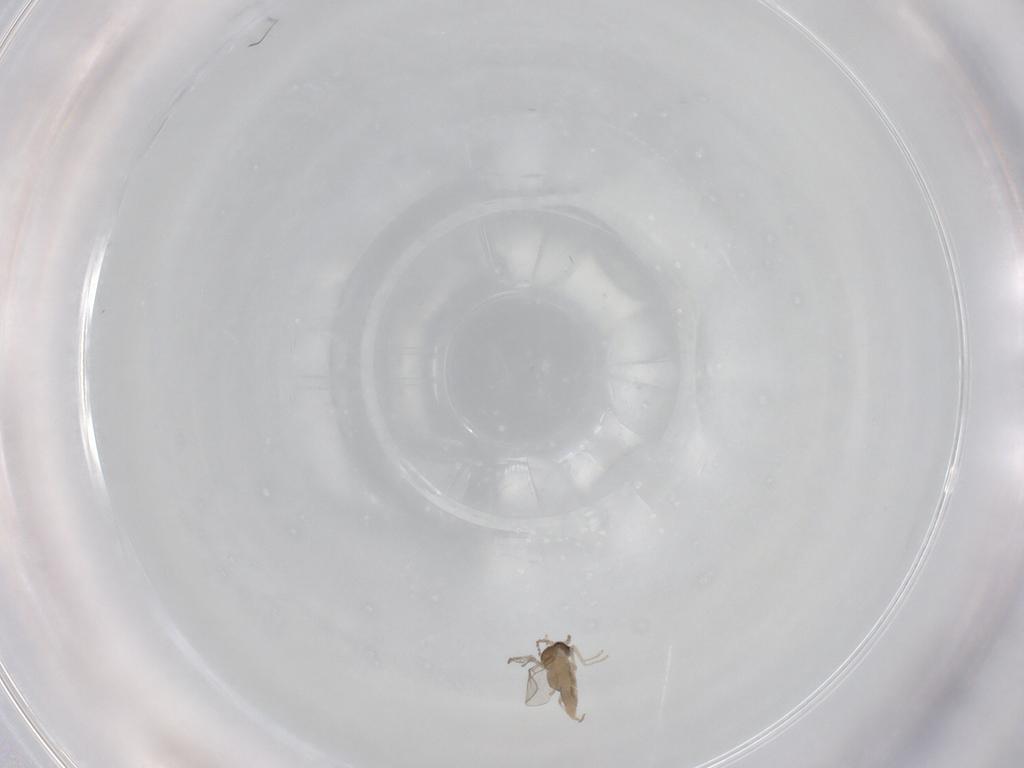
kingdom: Animalia
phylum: Arthropoda
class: Insecta
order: Diptera
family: Cecidomyiidae
